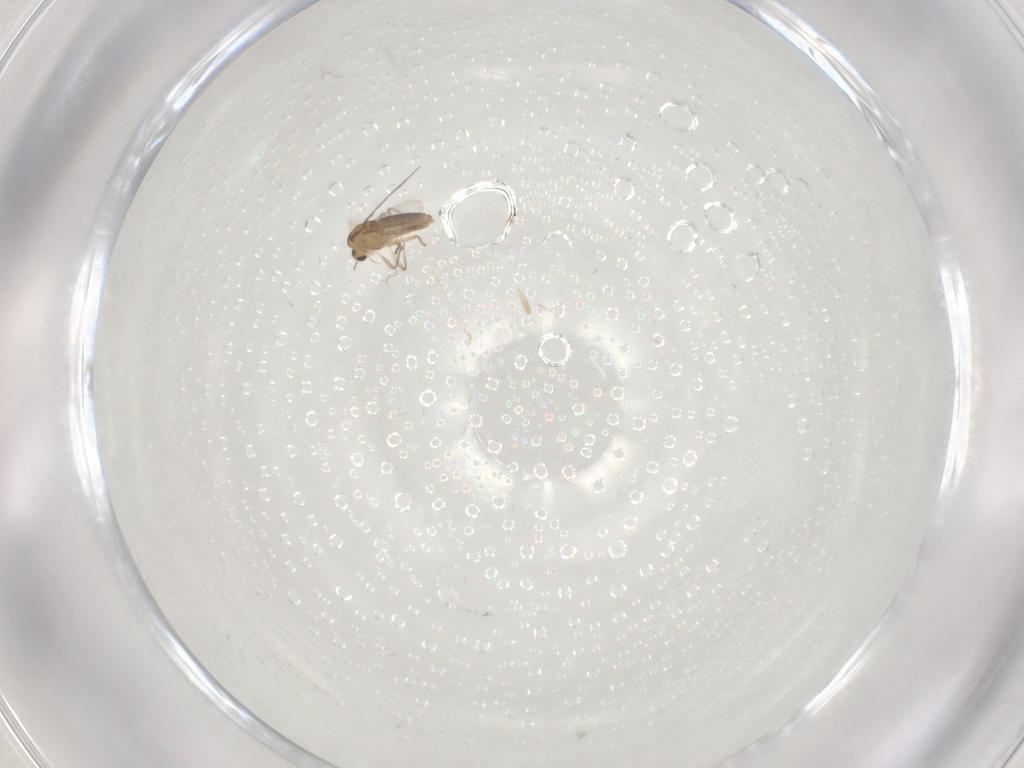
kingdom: Animalia
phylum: Arthropoda
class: Insecta
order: Diptera
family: Chironomidae
